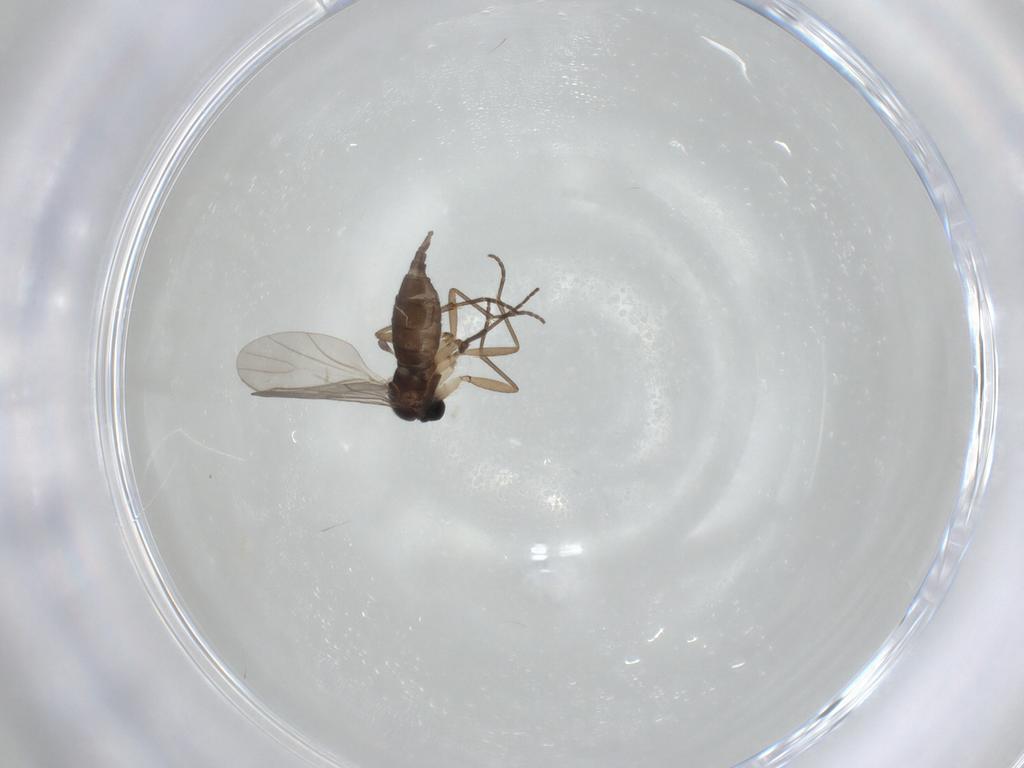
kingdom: Animalia
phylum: Arthropoda
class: Insecta
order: Diptera
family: Sciaridae
